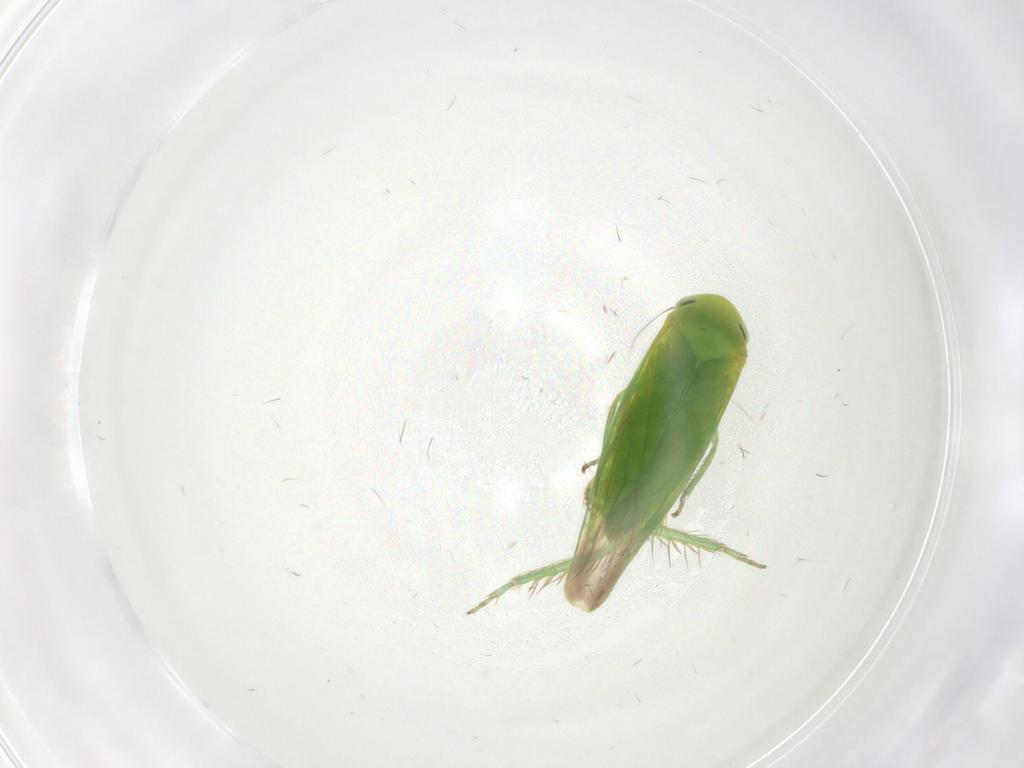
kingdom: Animalia
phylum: Arthropoda
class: Insecta
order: Hemiptera
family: Cicadellidae
